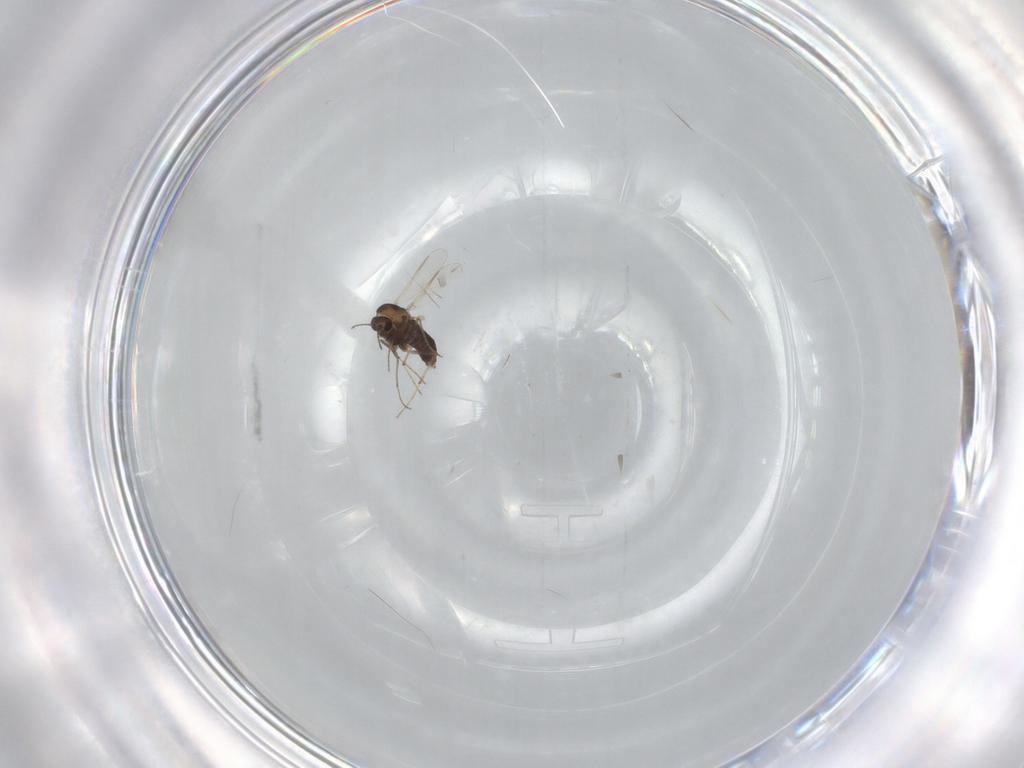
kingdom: Animalia
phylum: Arthropoda
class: Insecta
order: Diptera
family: Chironomidae
